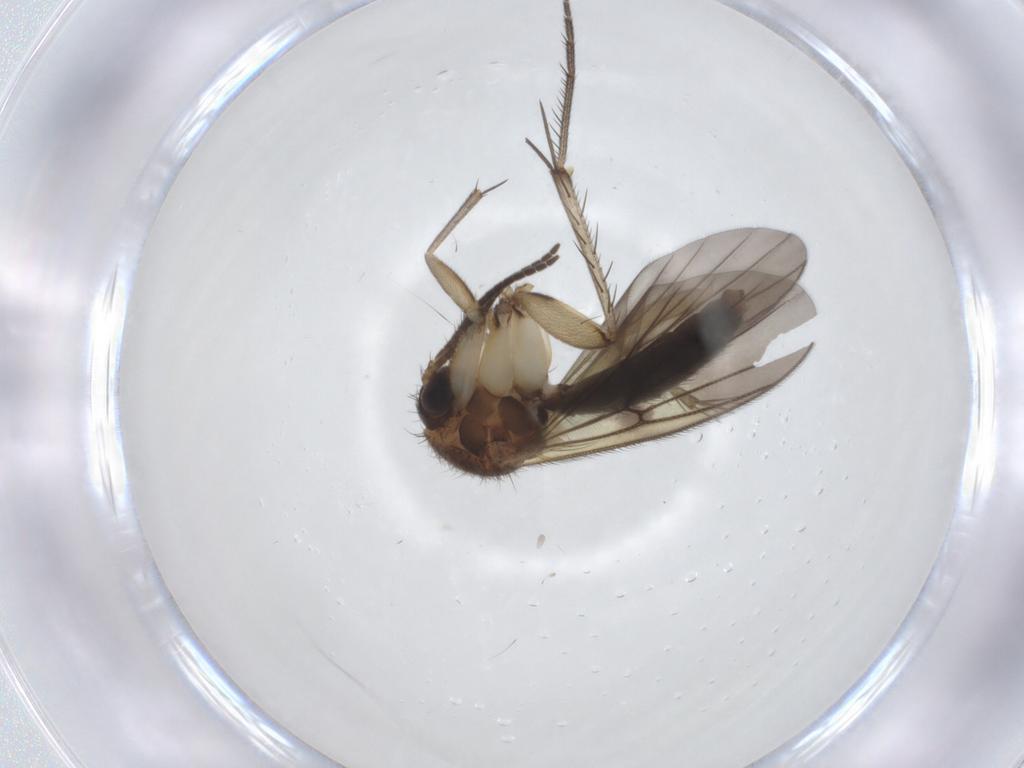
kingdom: Animalia
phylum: Arthropoda
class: Insecta
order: Diptera
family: Mycetophilidae
